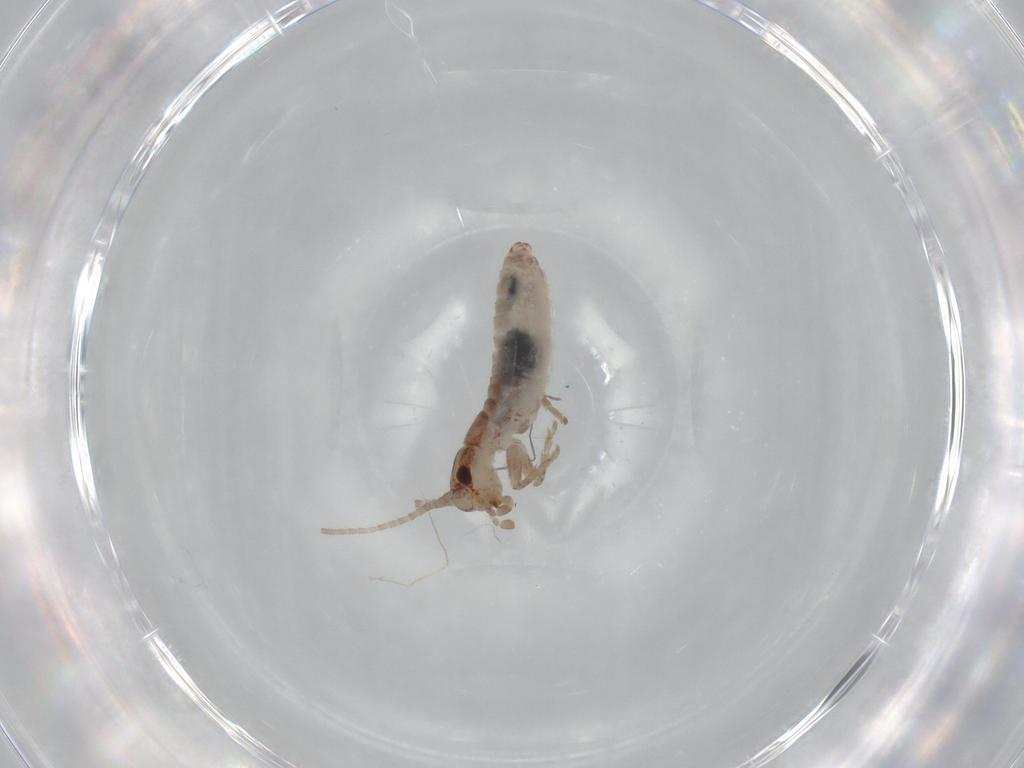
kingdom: Animalia
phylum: Arthropoda
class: Insecta
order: Orthoptera
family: Mogoplistidae
